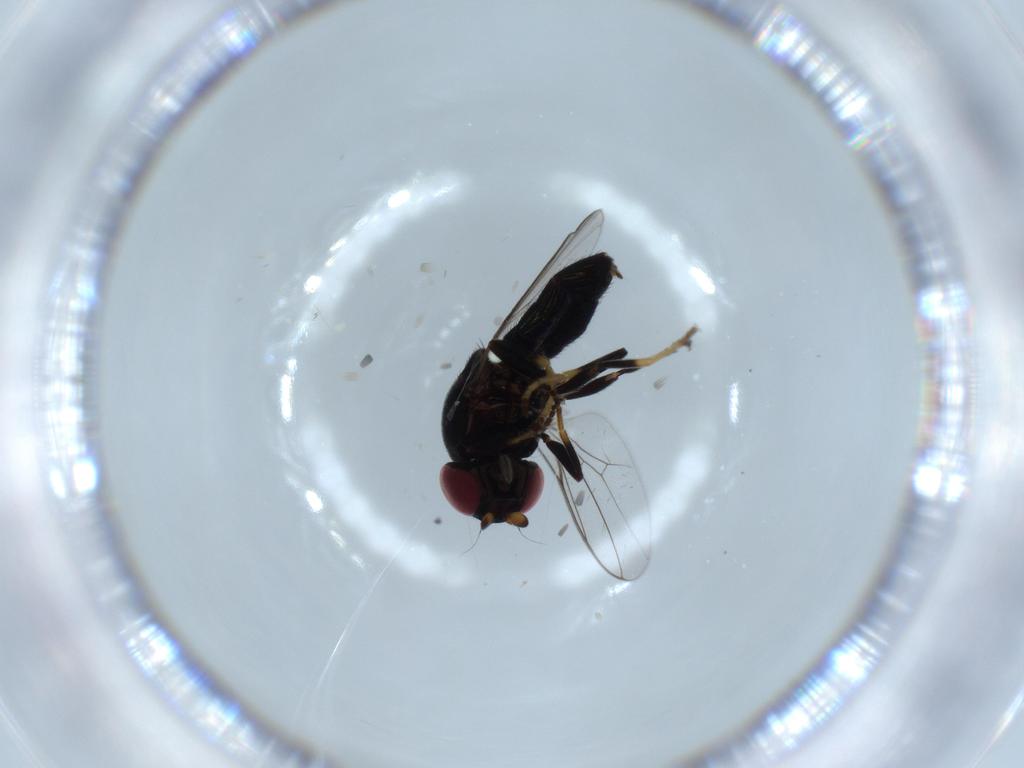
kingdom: Animalia
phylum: Arthropoda
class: Insecta
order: Diptera
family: Chloropidae
